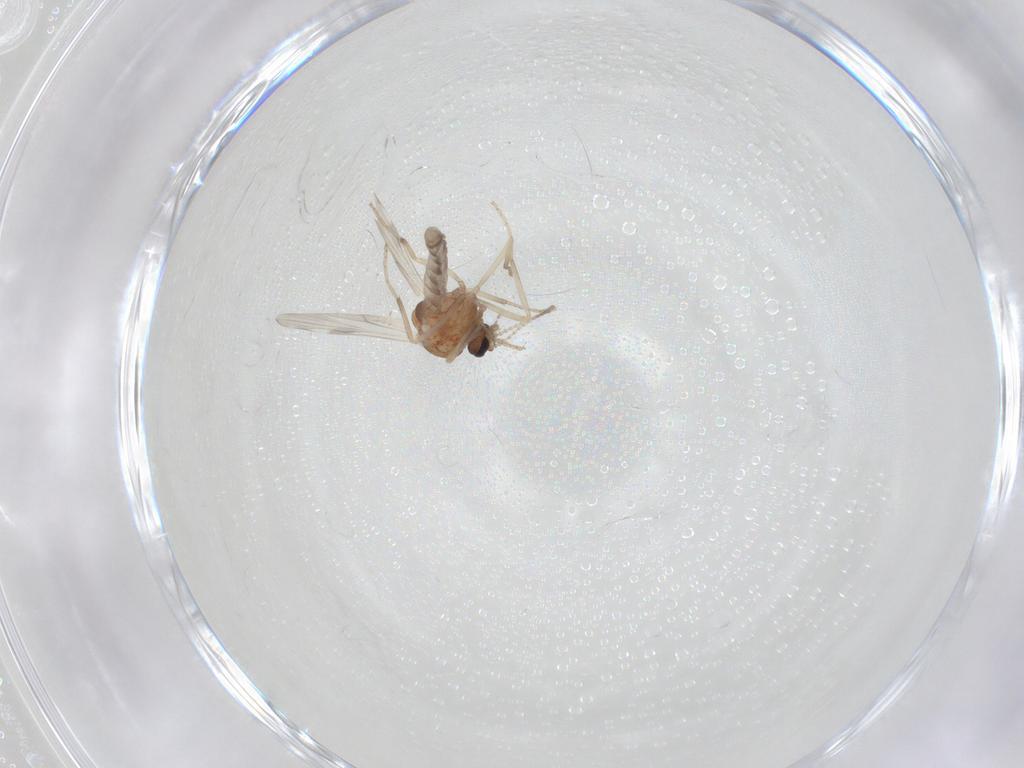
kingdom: Animalia
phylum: Arthropoda
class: Insecta
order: Diptera
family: Chironomidae
